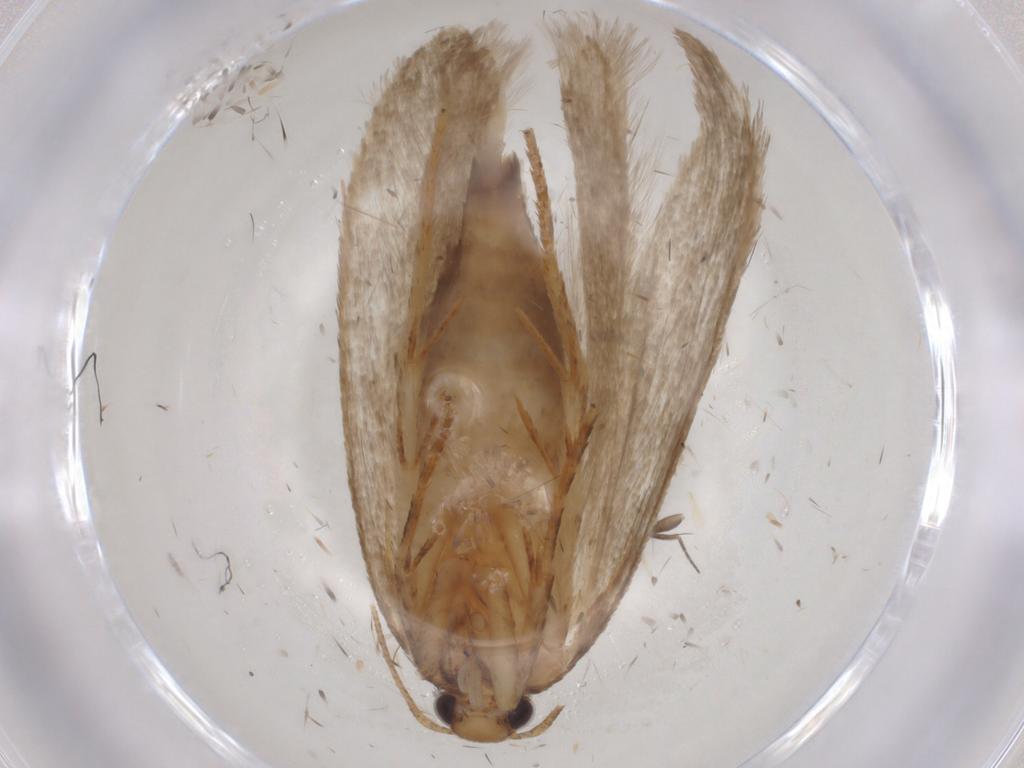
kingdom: Animalia
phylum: Arthropoda
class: Insecta
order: Lepidoptera
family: Gelechiidae
